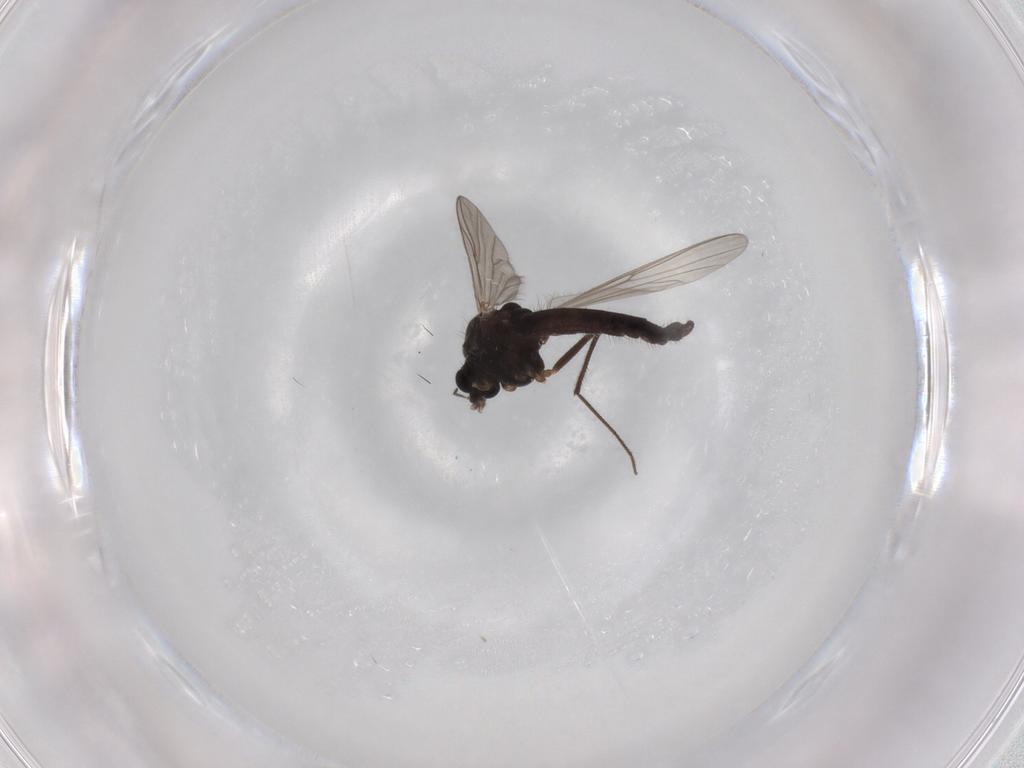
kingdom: Animalia
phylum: Arthropoda
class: Insecta
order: Diptera
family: Chironomidae
